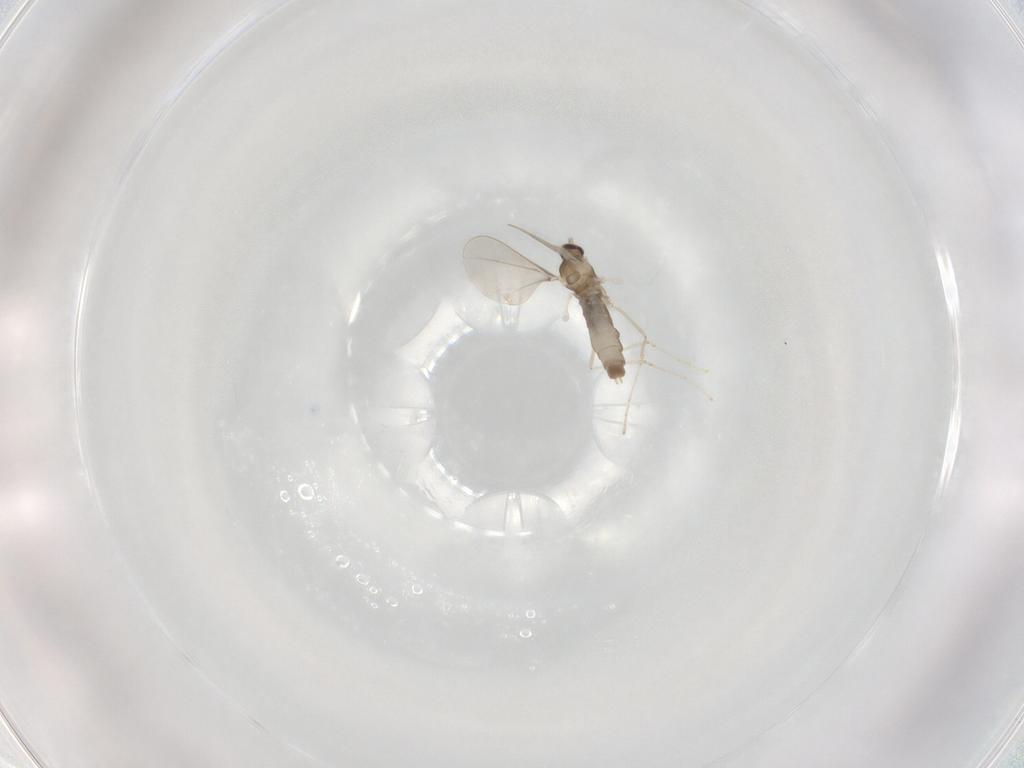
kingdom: Animalia
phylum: Arthropoda
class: Insecta
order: Diptera
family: Cecidomyiidae
